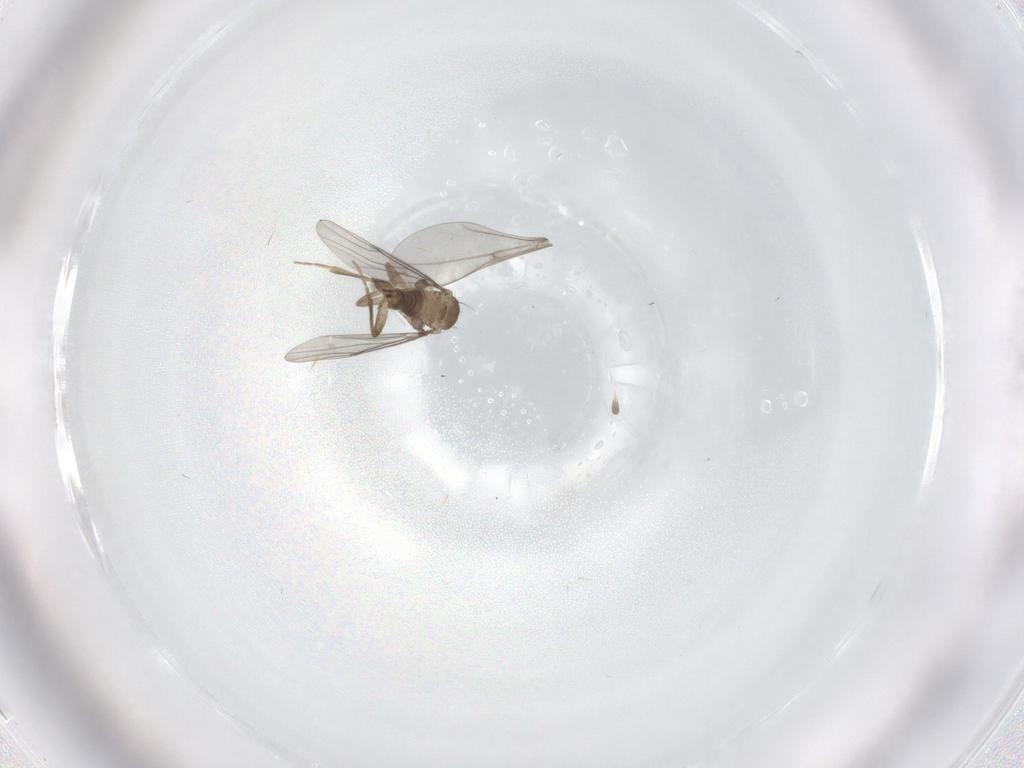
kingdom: Animalia
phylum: Arthropoda
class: Insecta
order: Diptera
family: Cecidomyiidae
